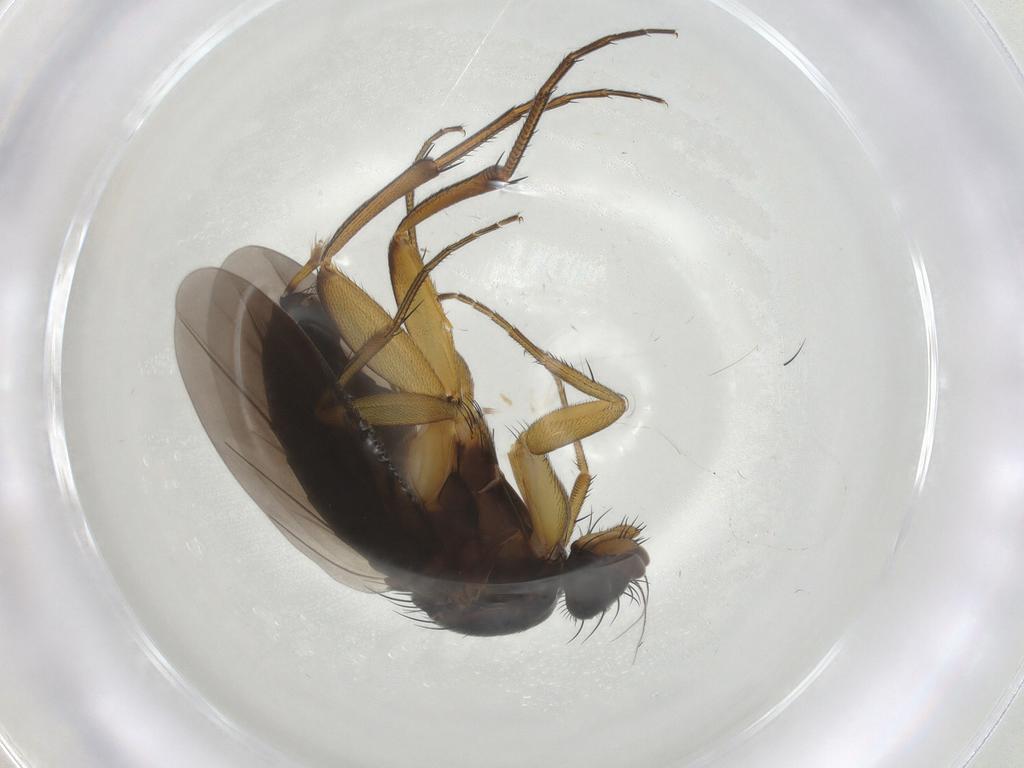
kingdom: Animalia
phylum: Arthropoda
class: Insecta
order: Diptera
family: Phoridae
